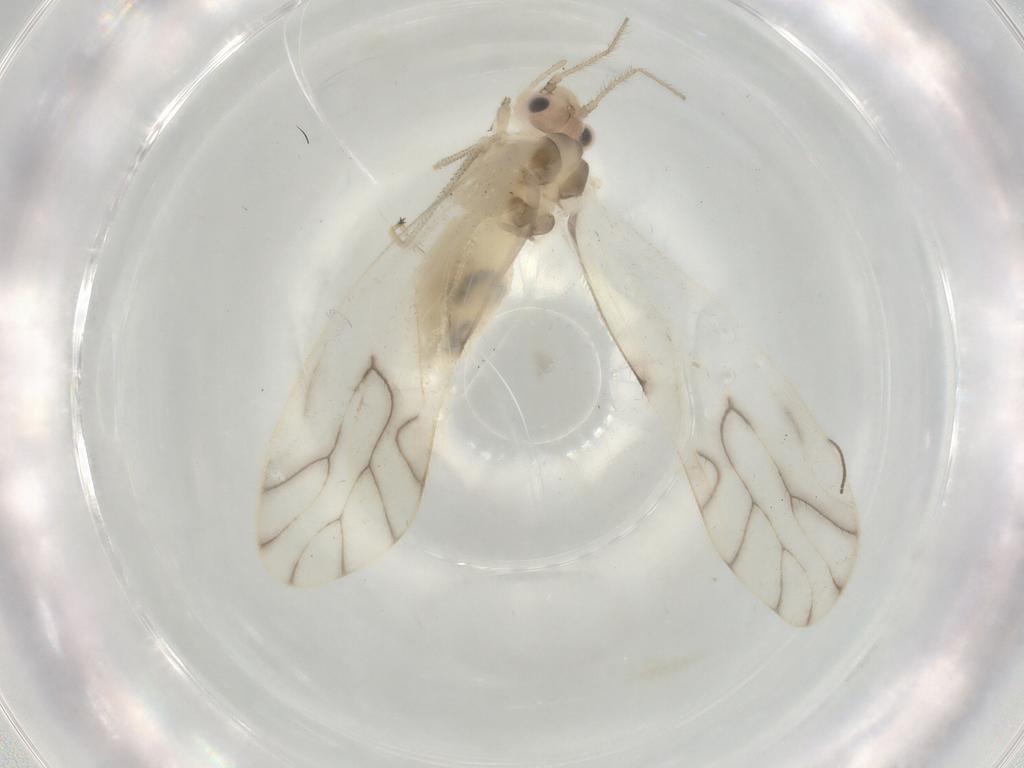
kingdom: Animalia
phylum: Arthropoda
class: Insecta
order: Psocodea
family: Caeciliusidae
